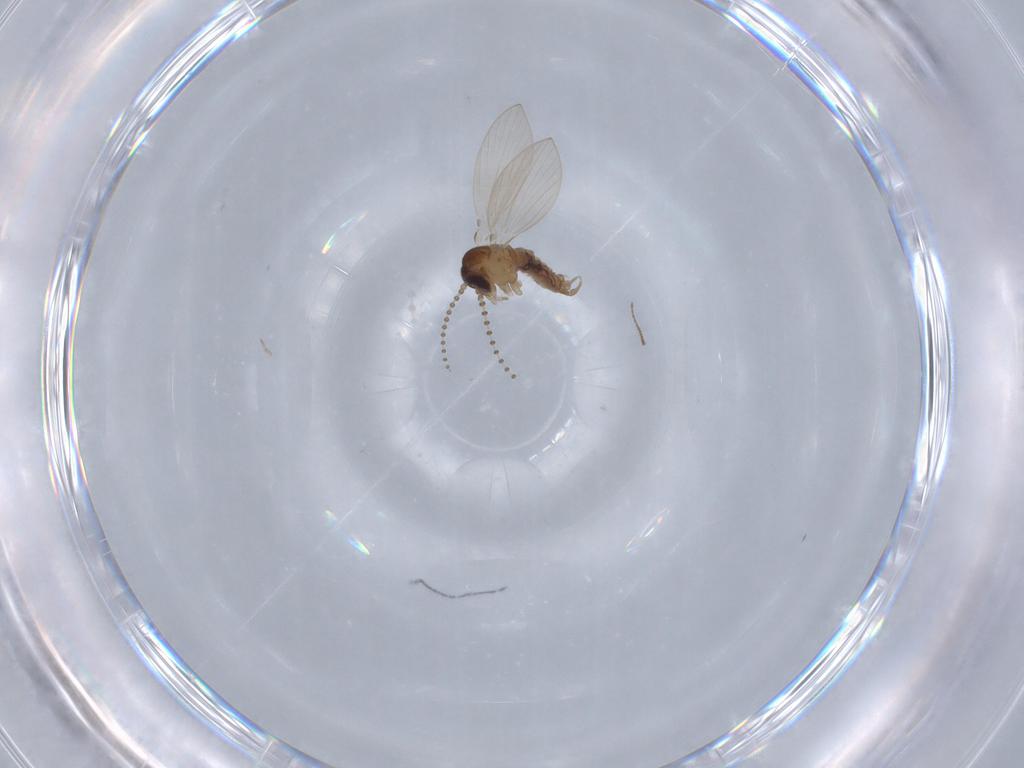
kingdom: Animalia
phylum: Arthropoda
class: Insecta
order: Diptera
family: Psychodidae
